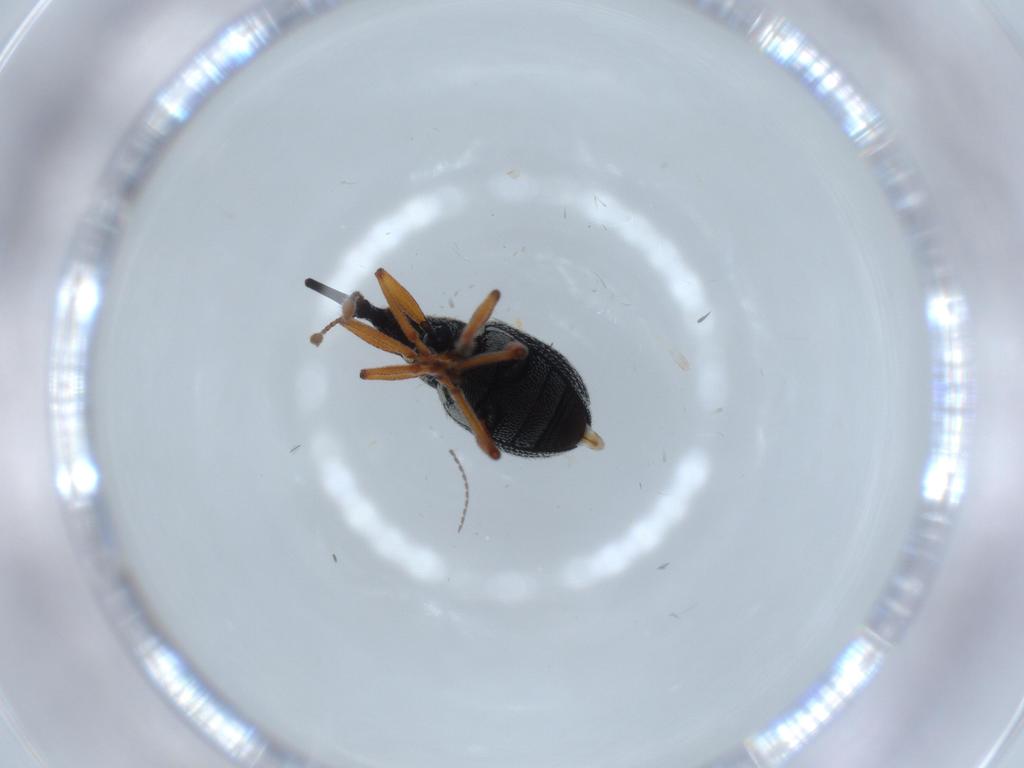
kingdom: Animalia
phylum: Arthropoda
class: Insecta
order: Coleoptera
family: Brentidae
